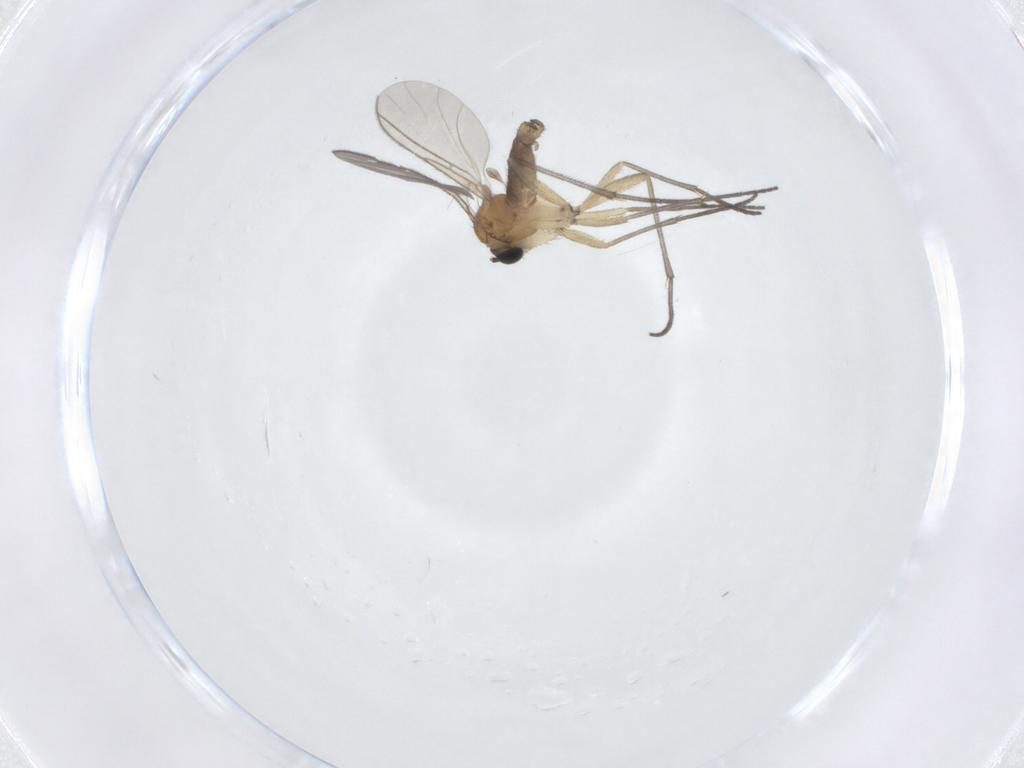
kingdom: Animalia
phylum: Arthropoda
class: Insecta
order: Diptera
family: Sciaridae
